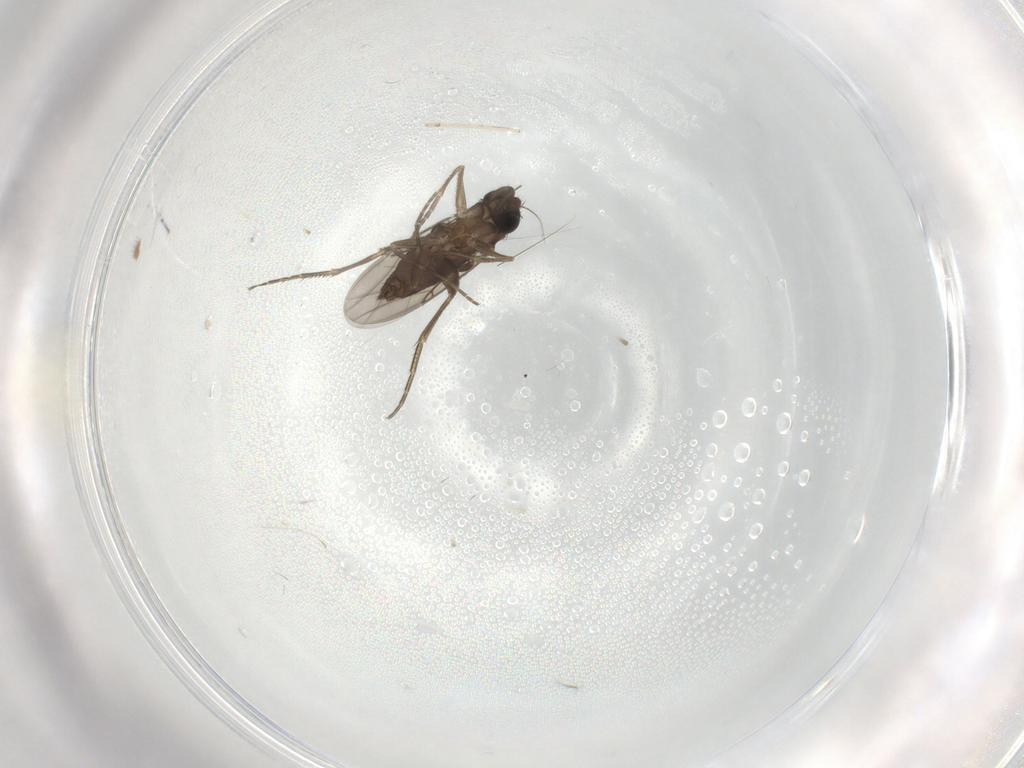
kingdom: Animalia
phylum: Arthropoda
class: Insecta
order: Diptera
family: Phoridae
